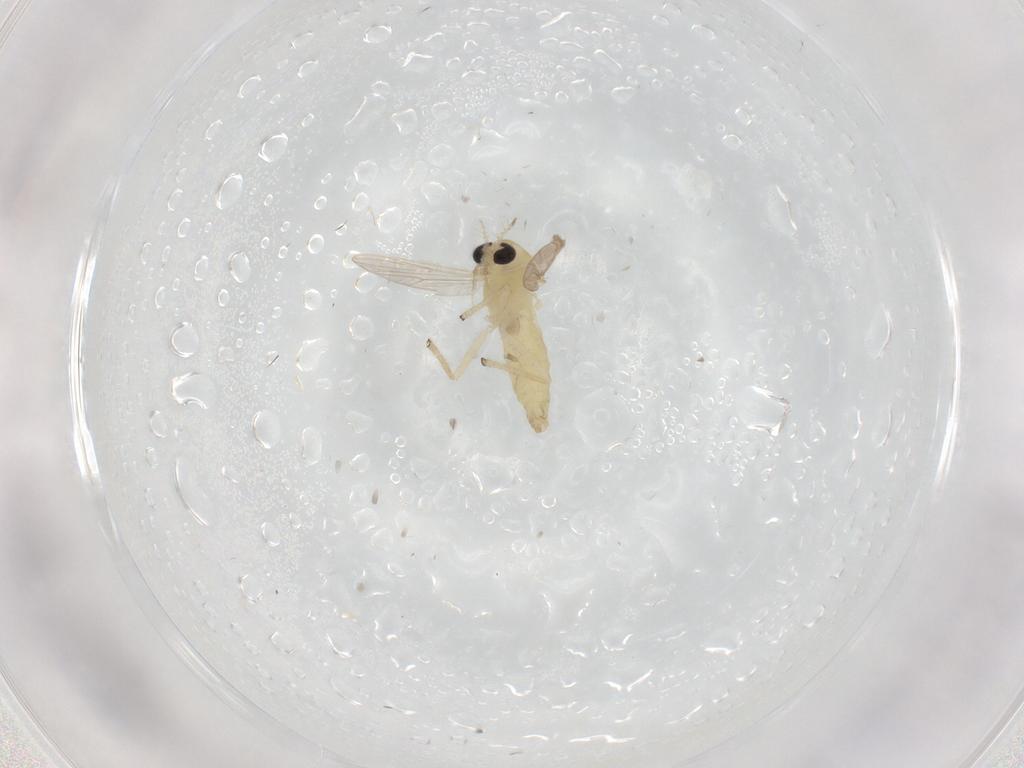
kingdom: Animalia
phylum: Arthropoda
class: Insecta
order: Diptera
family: Chironomidae
